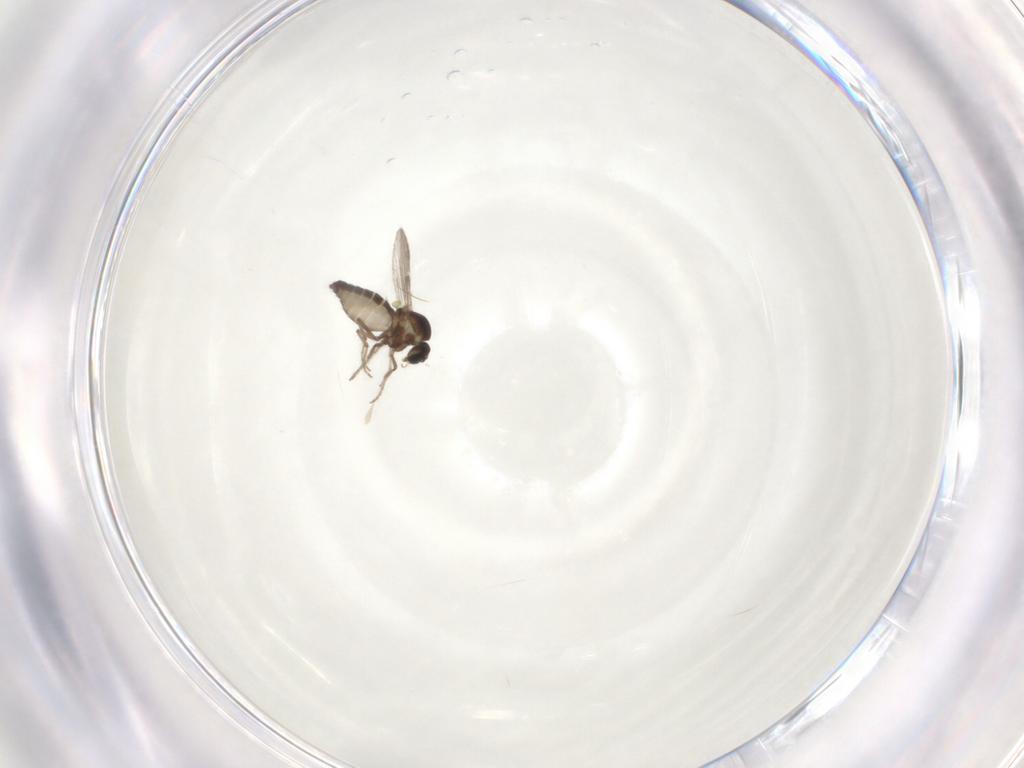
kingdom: Animalia
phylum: Arthropoda
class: Insecta
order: Diptera
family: Ceratopogonidae
